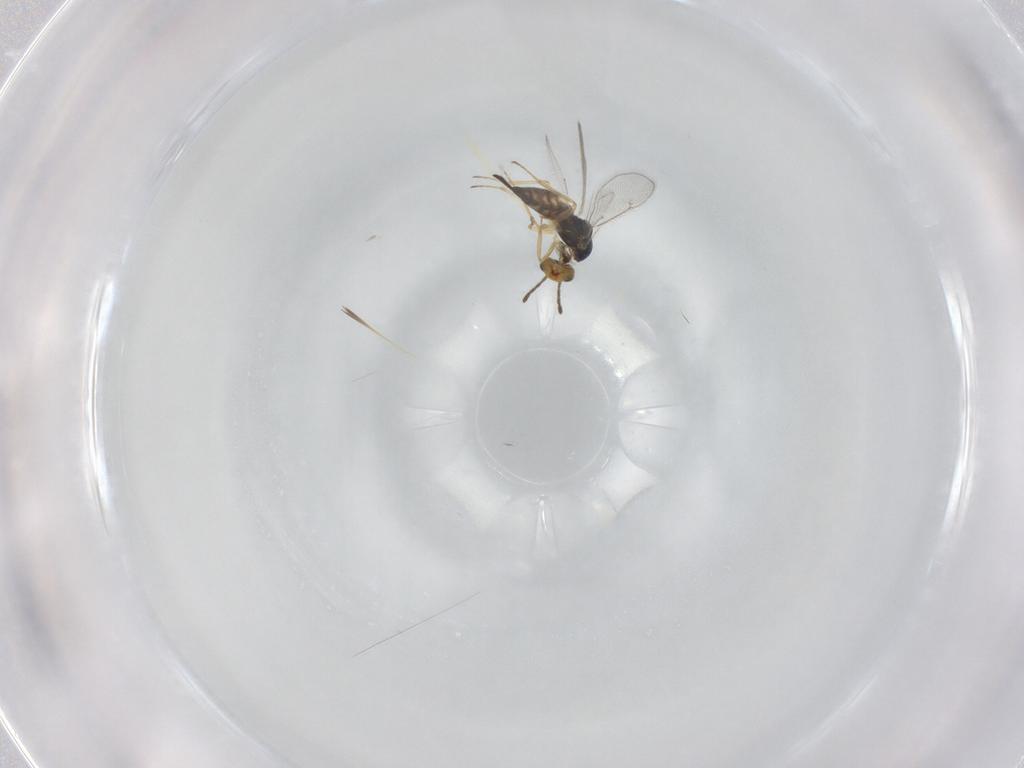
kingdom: Animalia
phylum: Arthropoda
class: Insecta
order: Hymenoptera
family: Eulophidae
